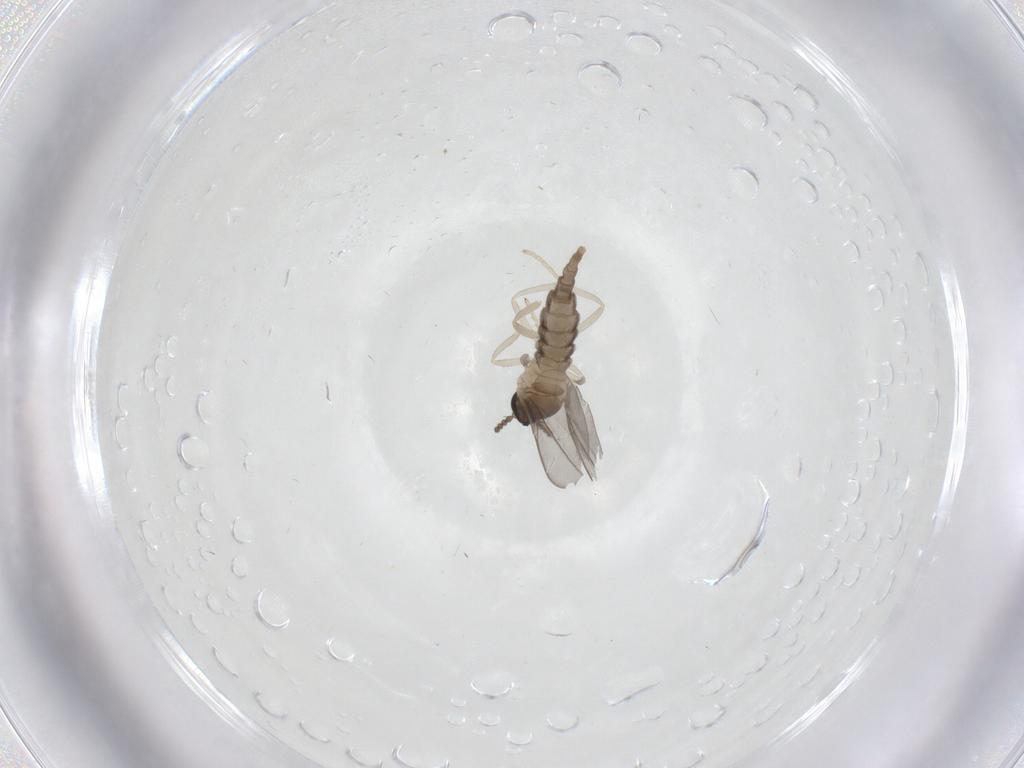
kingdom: Animalia
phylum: Arthropoda
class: Insecta
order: Diptera
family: Cecidomyiidae
